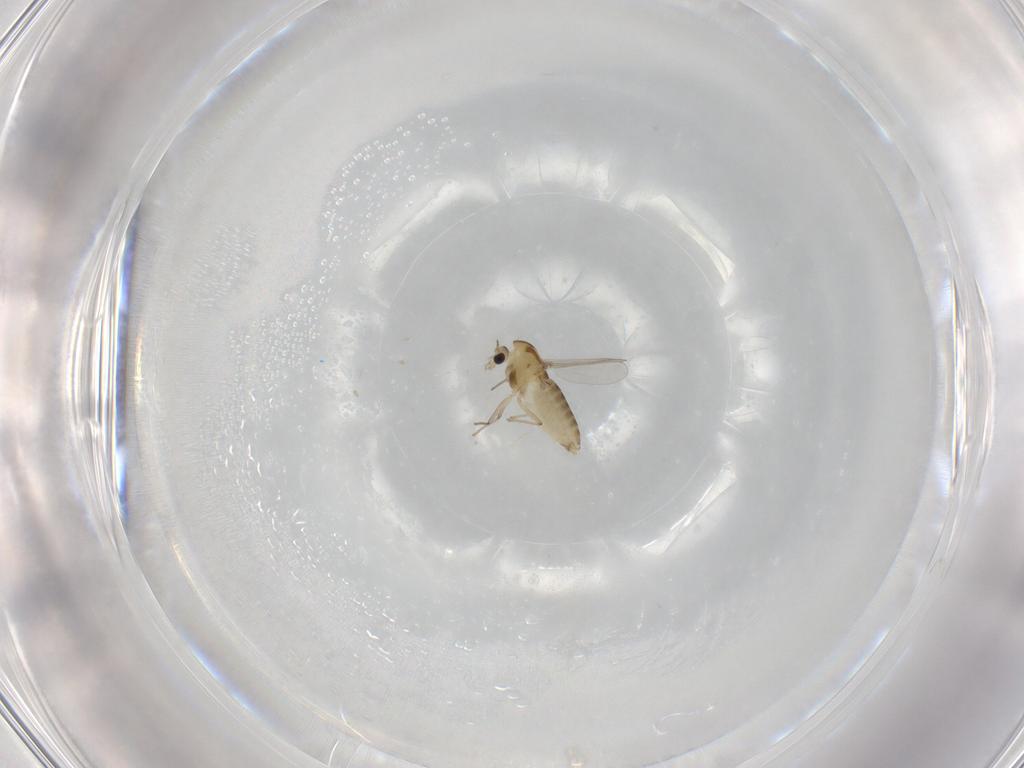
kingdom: Animalia
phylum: Arthropoda
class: Insecta
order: Diptera
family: Chironomidae
